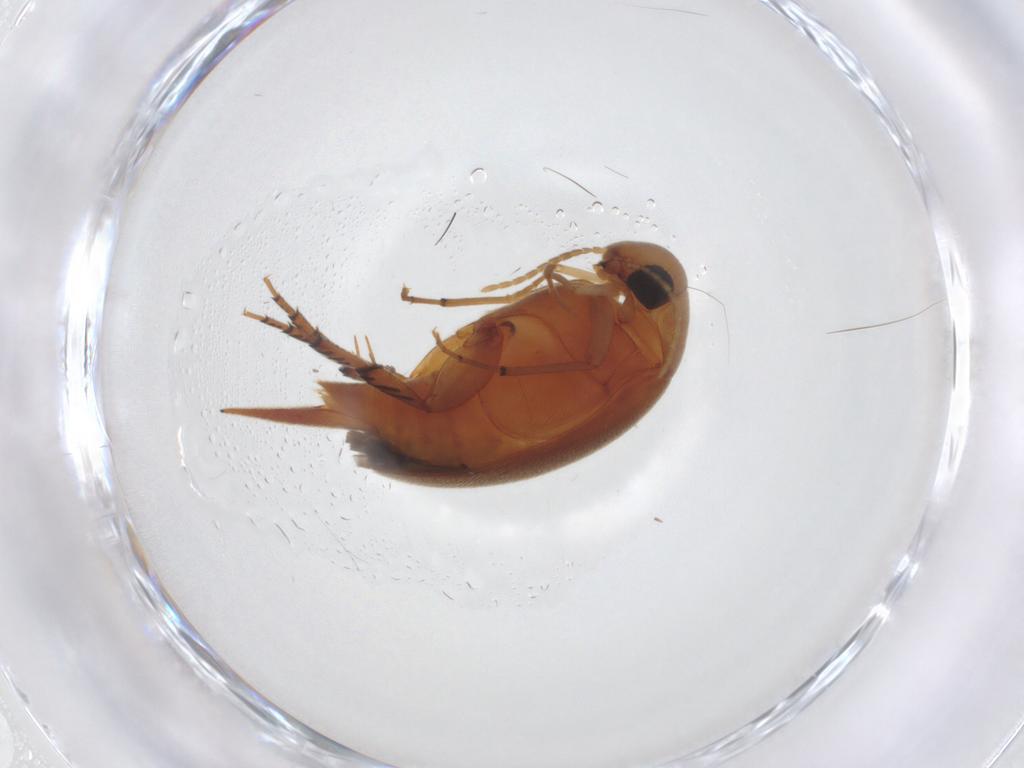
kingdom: Animalia
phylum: Arthropoda
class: Insecta
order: Coleoptera
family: Mordellidae
